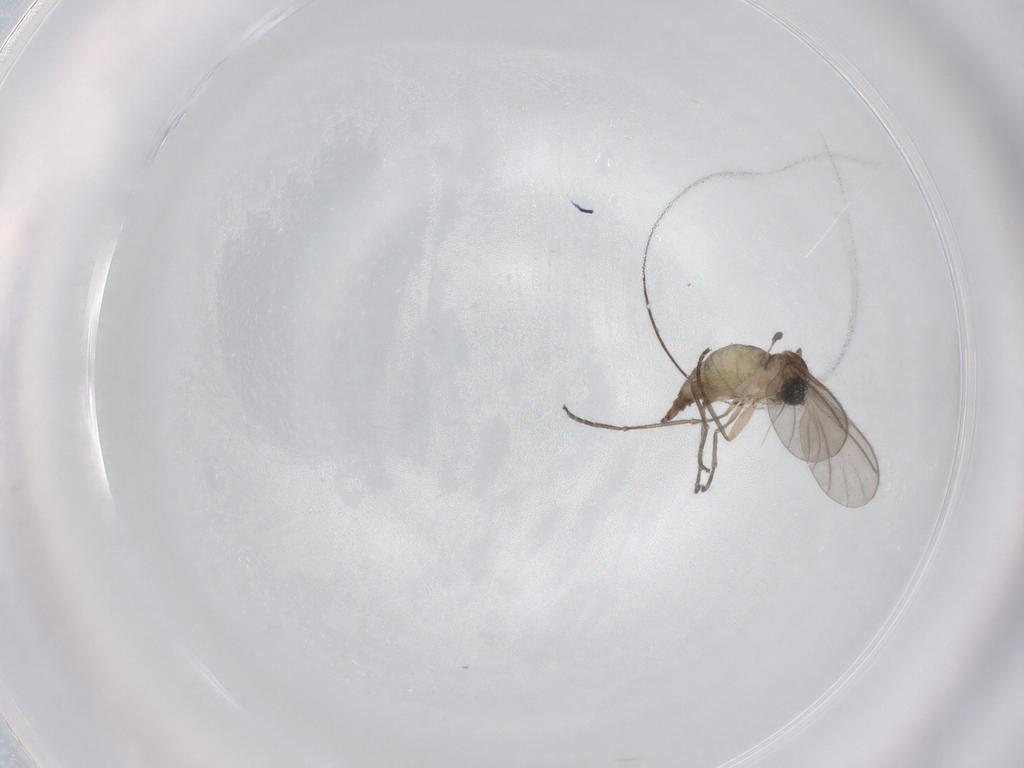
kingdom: Animalia
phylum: Arthropoda
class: Insecta
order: Diptera
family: Sciaridae
